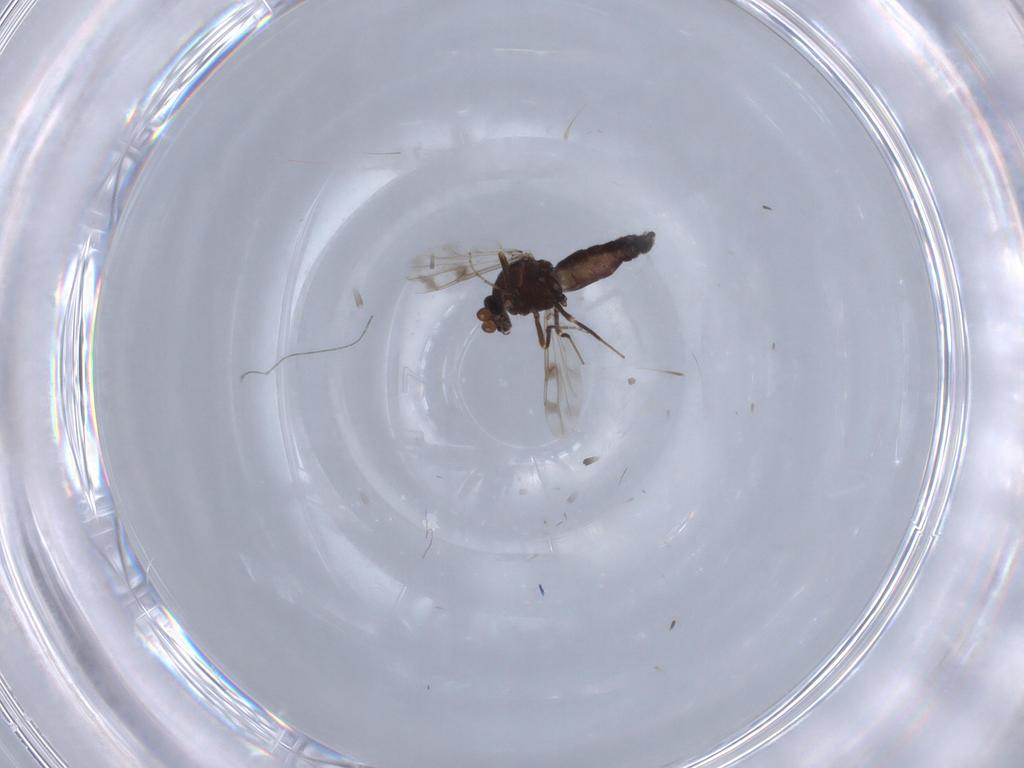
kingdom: Animalia
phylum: Arthropoda
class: Insecta
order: Diptera
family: Ceratopogonidae
